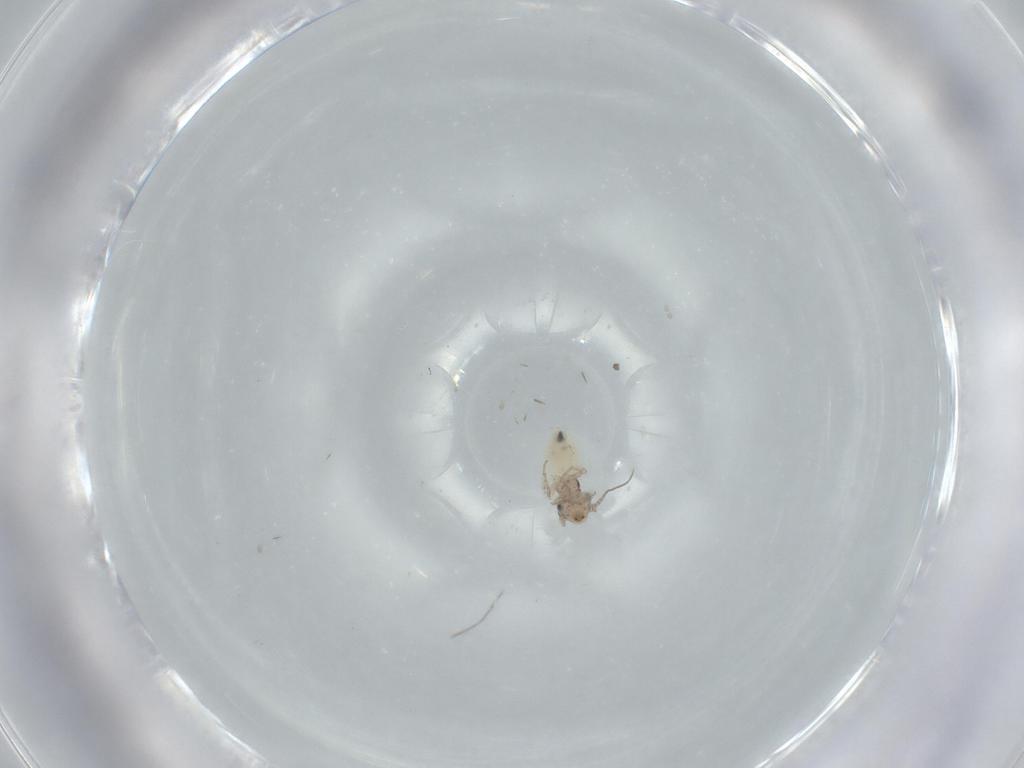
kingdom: Animalia
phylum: Arthropoda
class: Insecta
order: Psocodea
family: Lepidopsocidae
